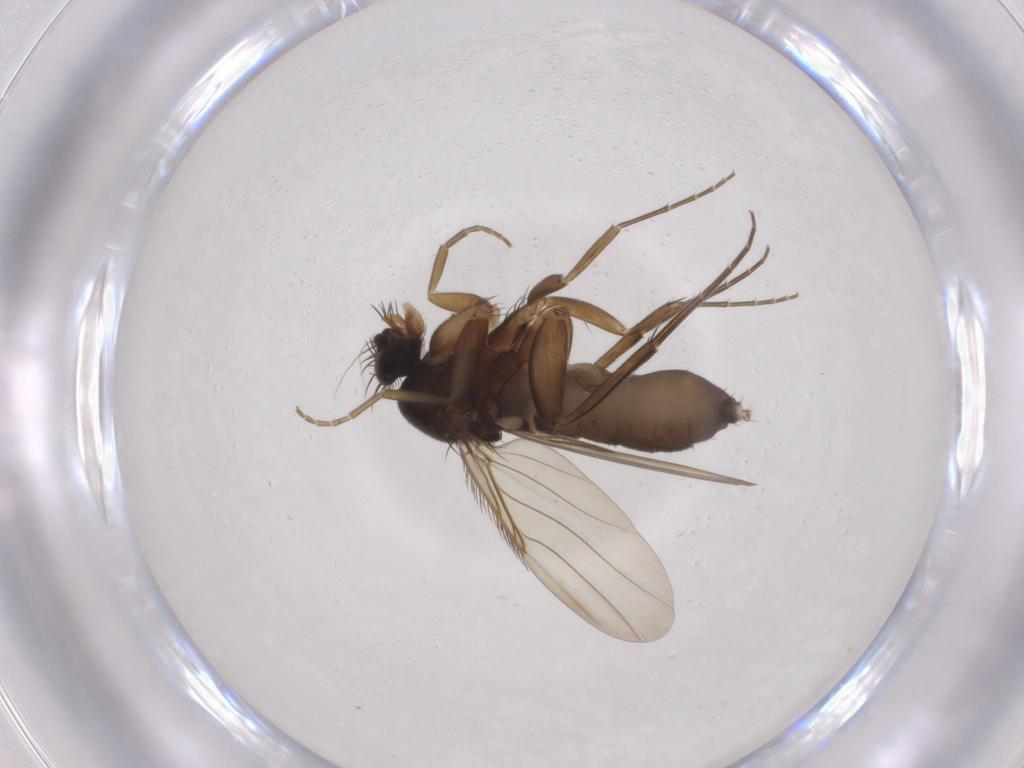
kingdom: Animalia
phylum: Arthropoda
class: Insecta
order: Diptera
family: Phoridae
